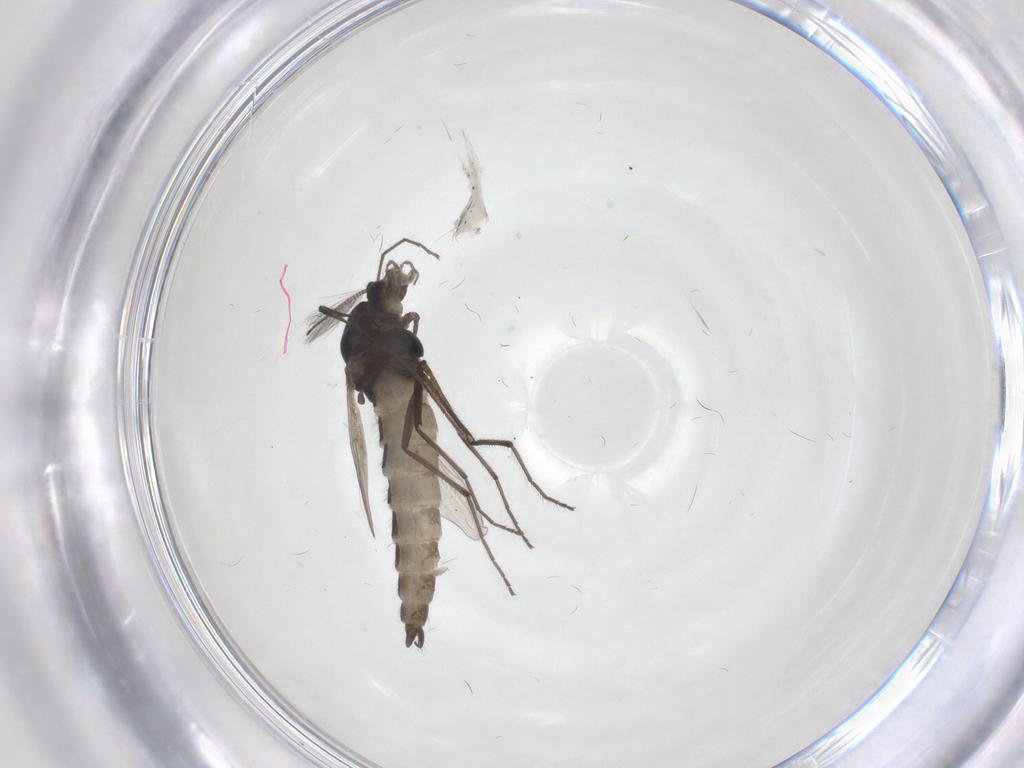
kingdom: Animalia
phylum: Arthropoda
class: Insecta
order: Diptera
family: Chironomidae
